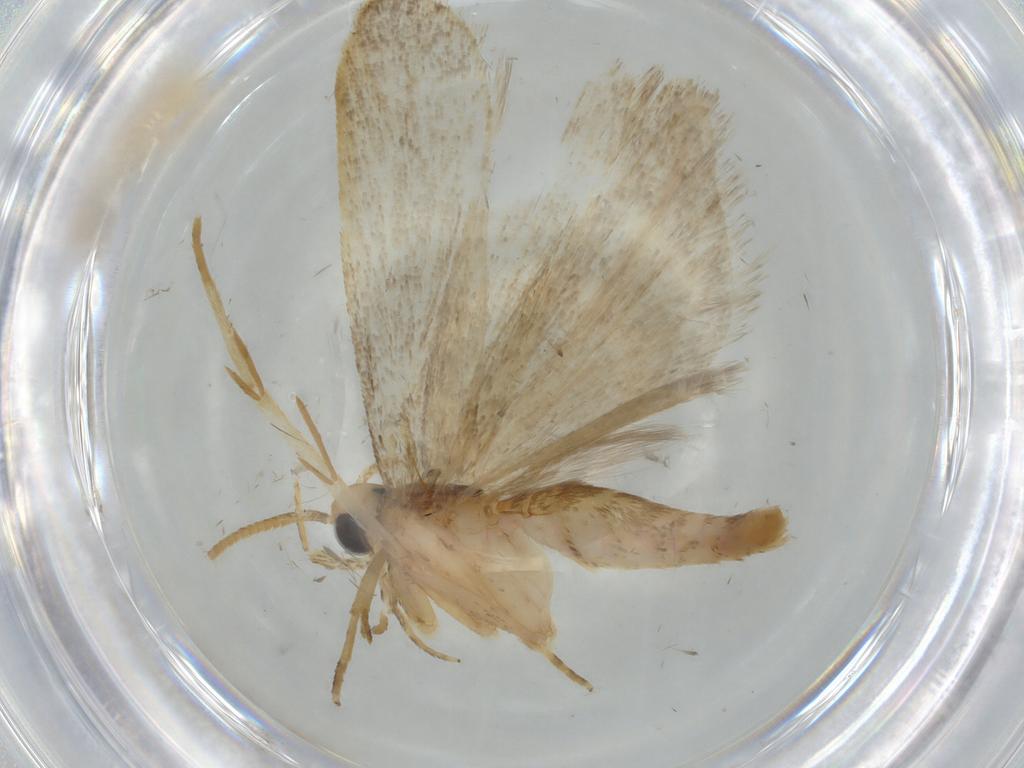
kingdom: Animalia
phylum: Arthropoda
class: Insecta
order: Lepidoptera
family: Autostichidae
